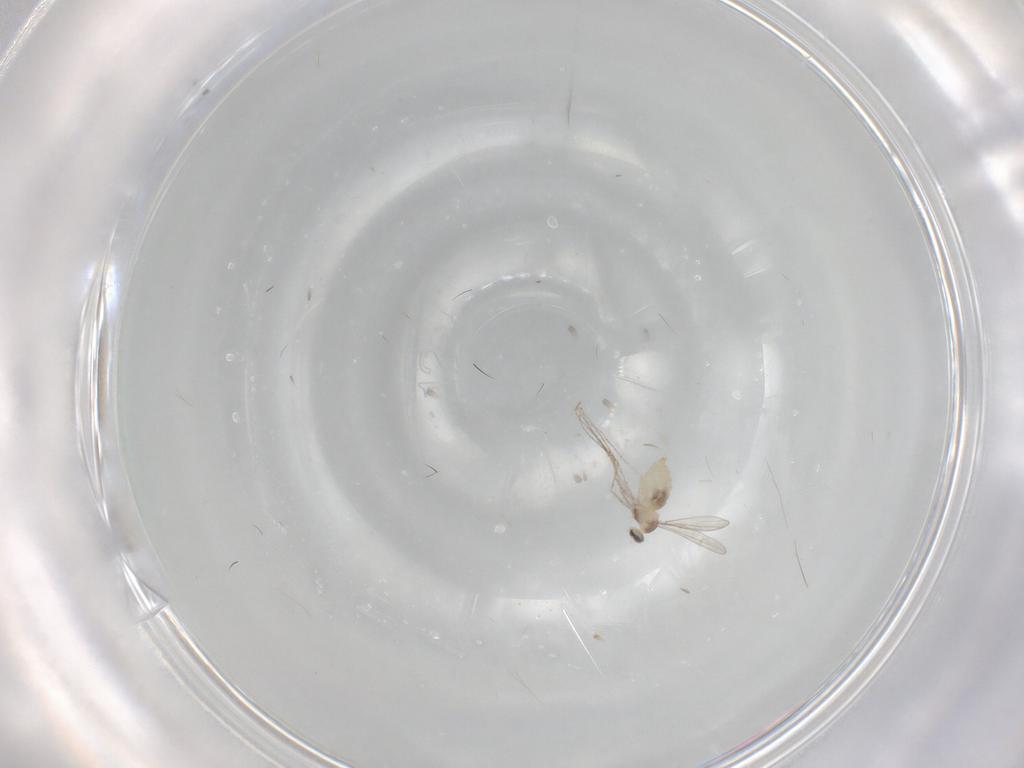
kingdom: Animalia
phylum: Arthropoda
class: Insecta
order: Diptera
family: Cecidomyiidae
